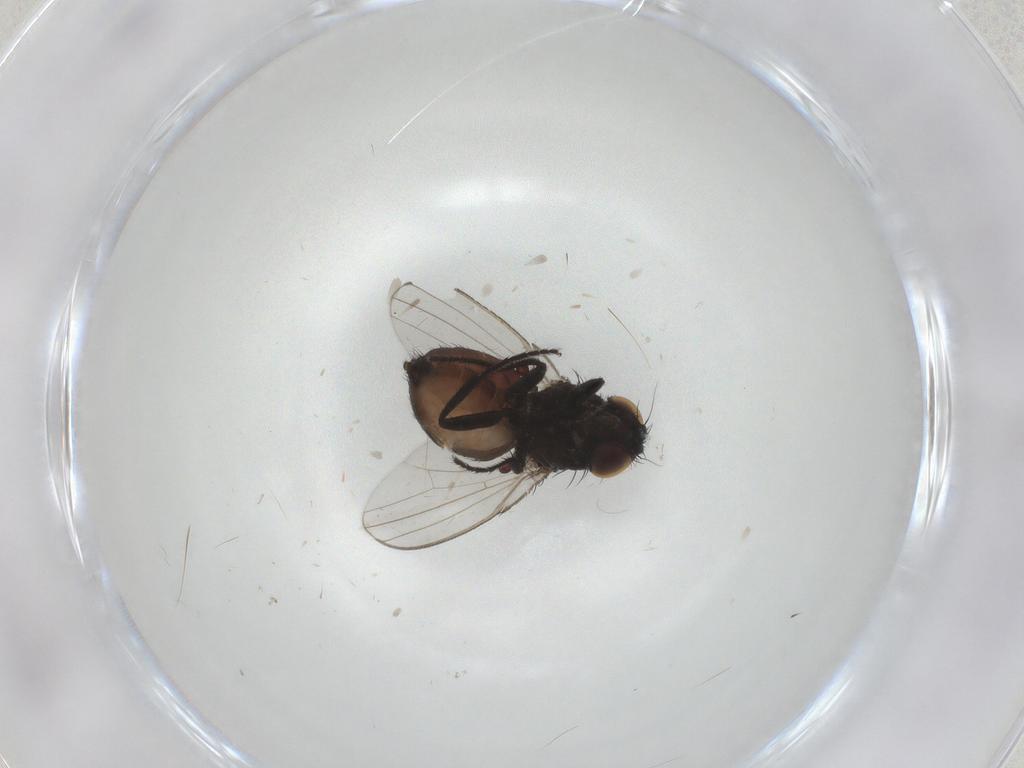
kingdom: Animalia
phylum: Arthropoda
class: Insecta
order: Diptera
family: Milichiidae
